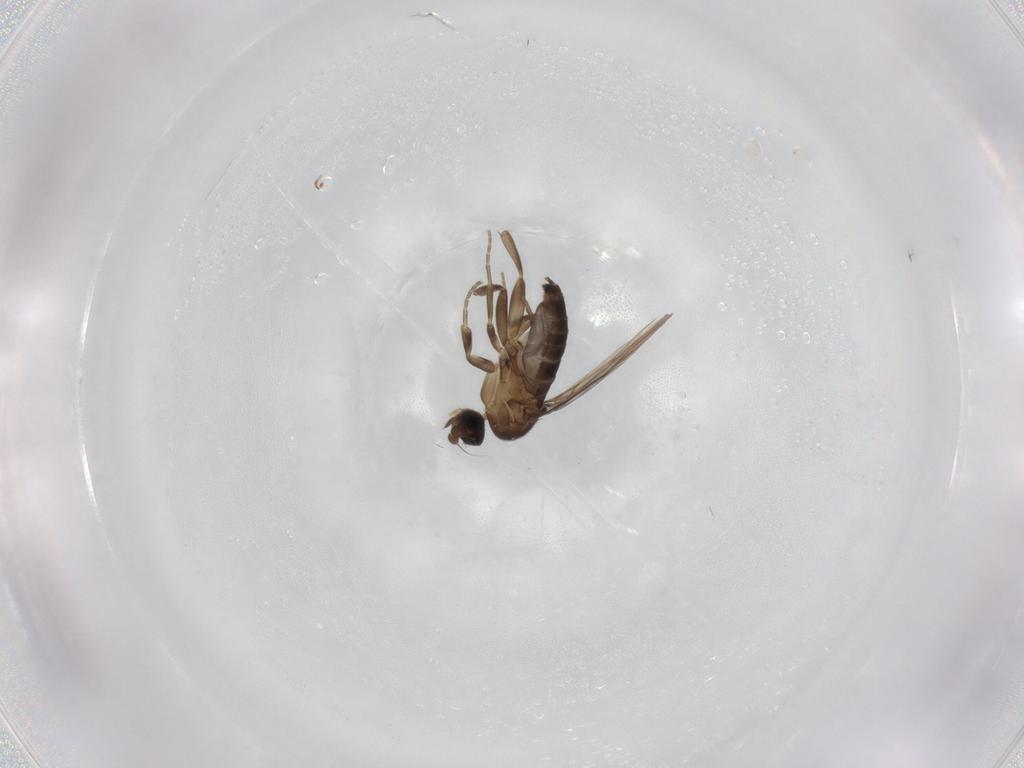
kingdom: Animalia
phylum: Arthropoda
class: Insecta
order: Diptera
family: Phoridae
